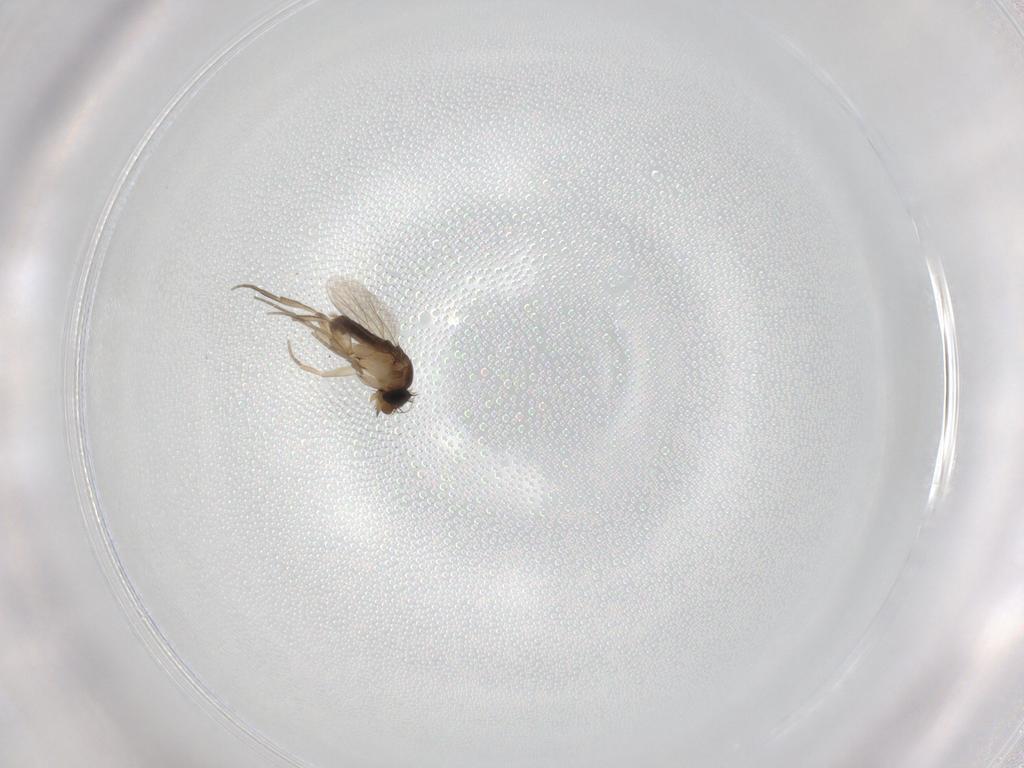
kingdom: Animalia
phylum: Arthropoda
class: Insecta
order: Diptera
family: Phoridae
